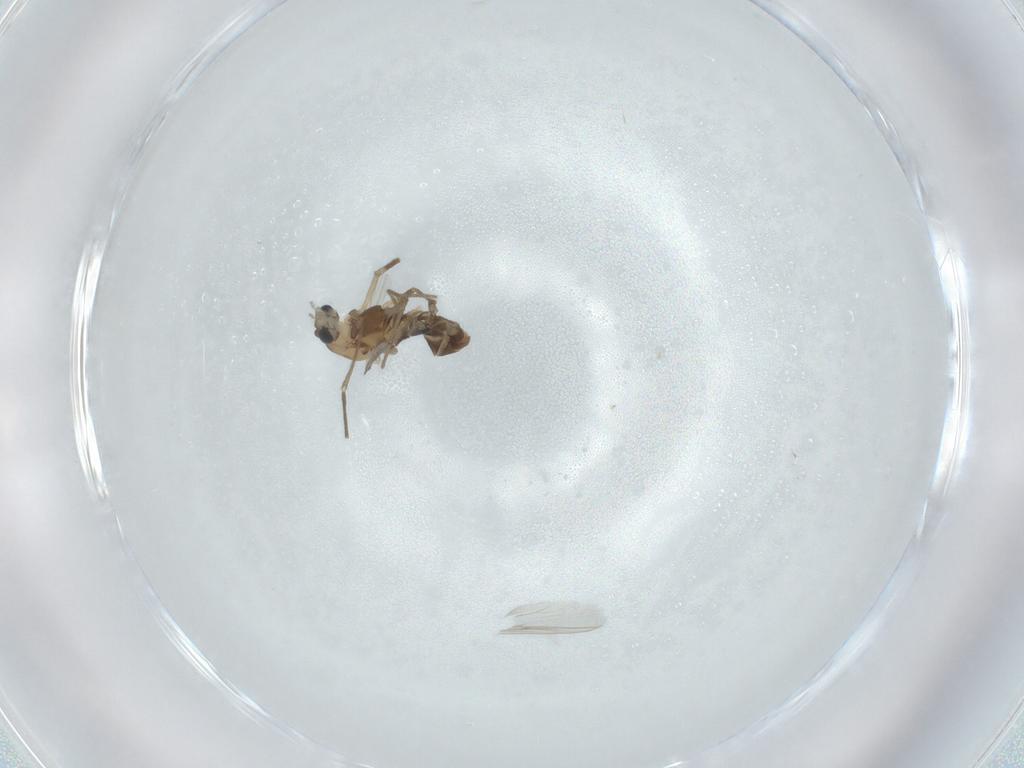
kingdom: Animalia
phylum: Arthropoda
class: Insecta
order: Diptera
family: Chironomidae
